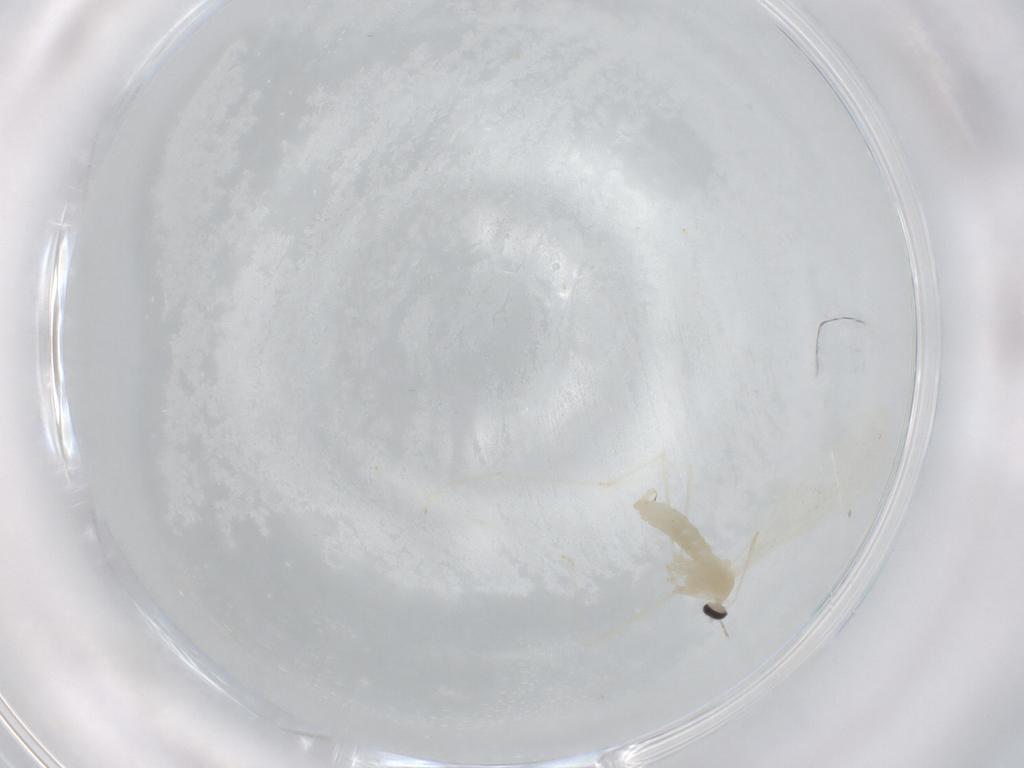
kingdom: Animalia
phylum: Arthropoda
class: Insecta
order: Diptera
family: Cecidomyiidae
